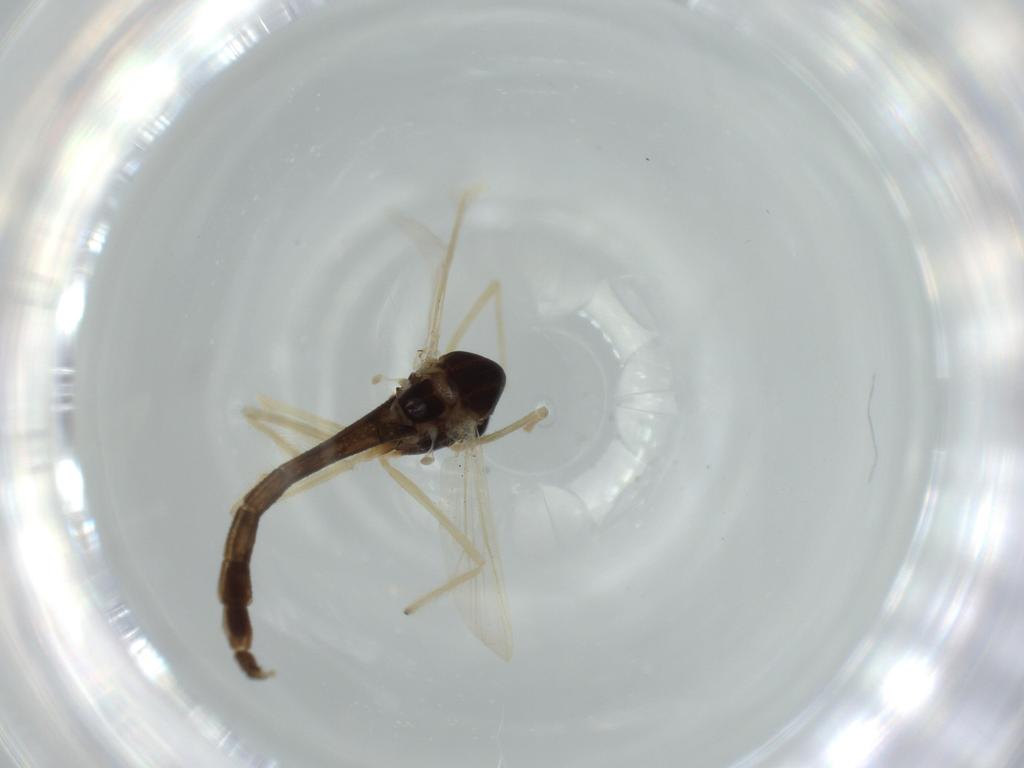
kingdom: Animalia
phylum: Arthropoda
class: Insecta
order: Diptera
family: Chironomidae
